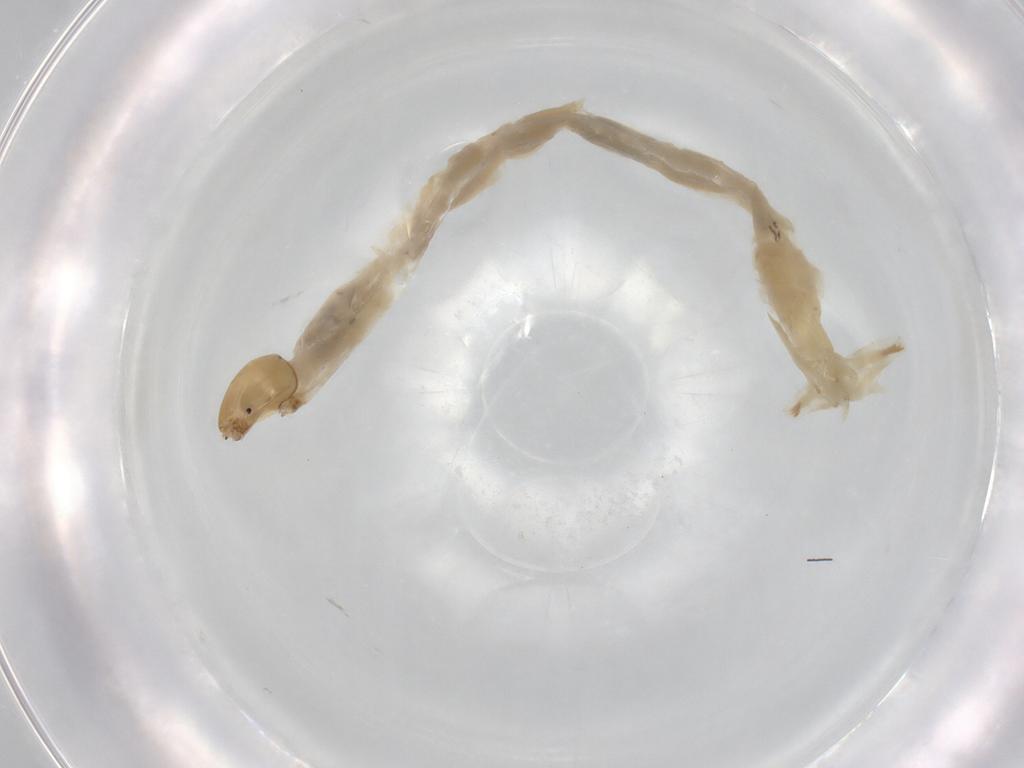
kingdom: Animalia
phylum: Arthropoda
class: Insecta
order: Diptera
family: Chironomidae
